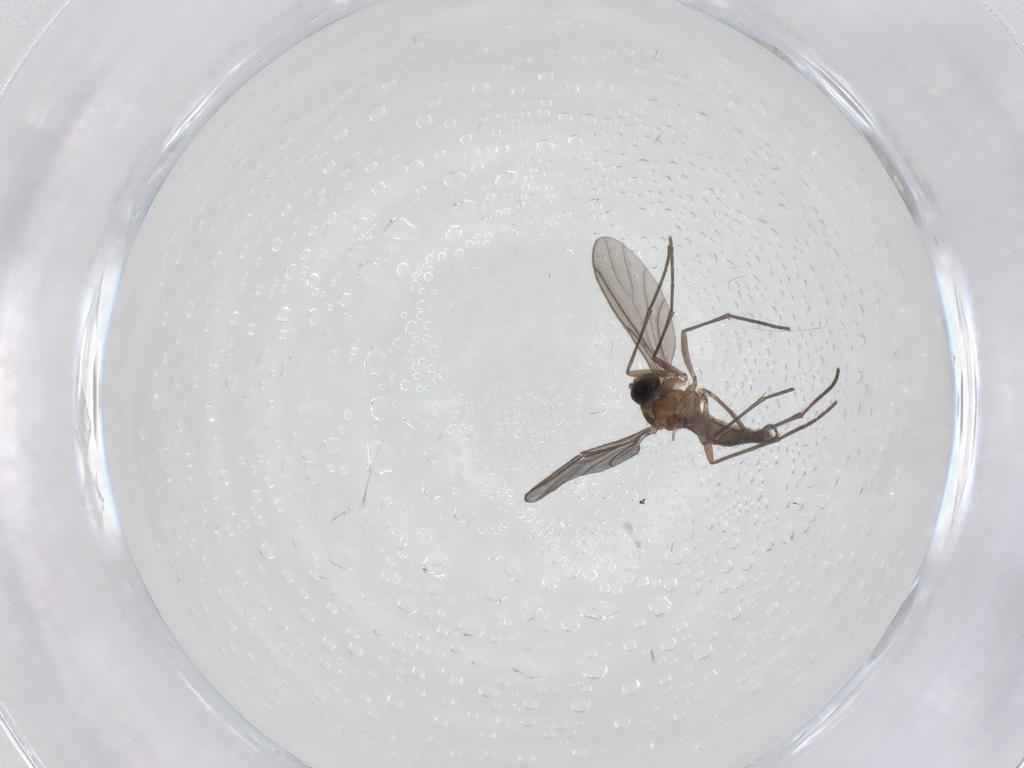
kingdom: Animalia
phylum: Arthropoda
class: Insecta
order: Diptera
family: Sciaridae
